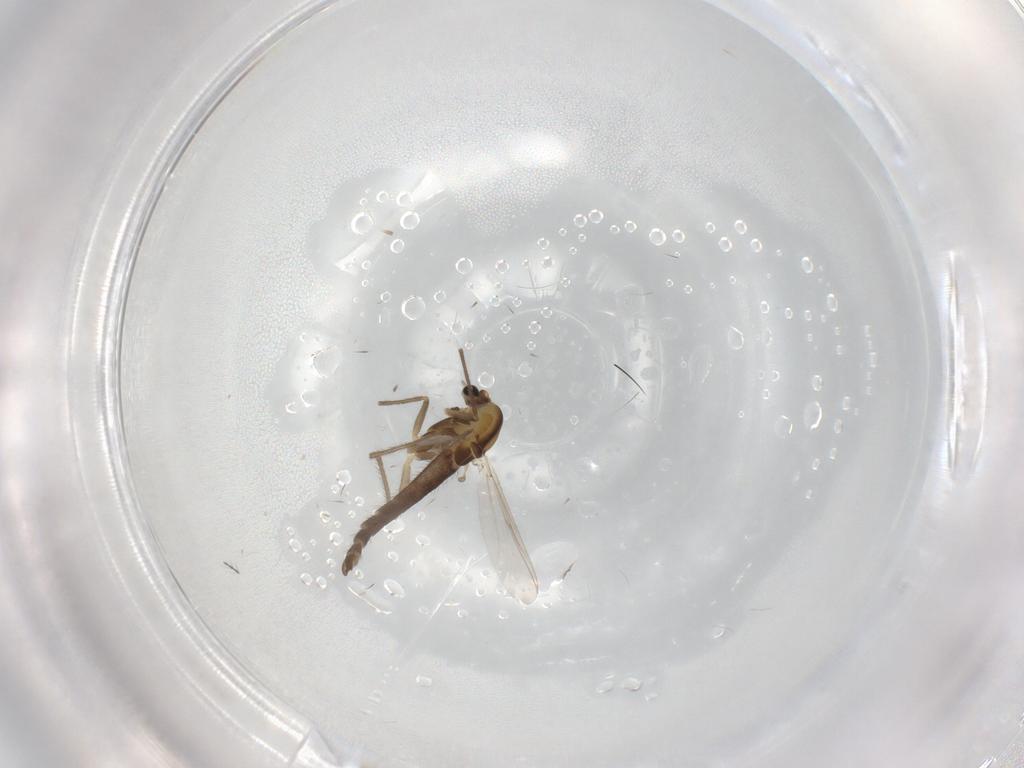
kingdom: Animalia
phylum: Arthropoda
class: Insecta
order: Diptera
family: Chironomidae
